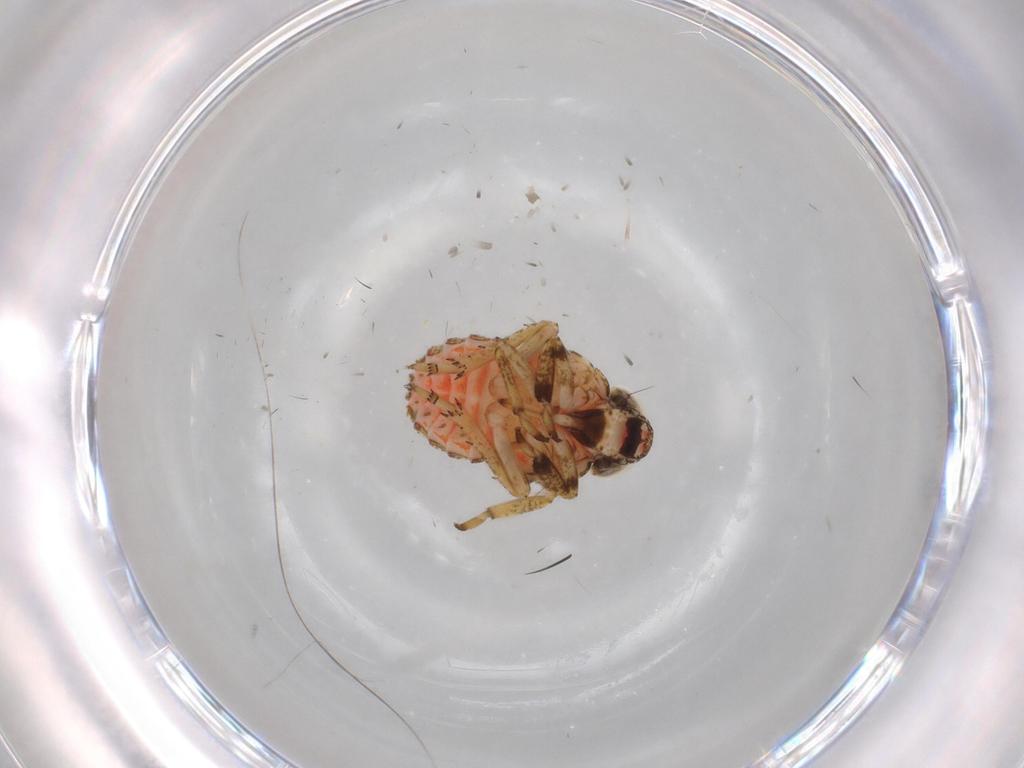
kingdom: Animalia
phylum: Arthropoda
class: Insecta
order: Hemiptera
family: Issidae
